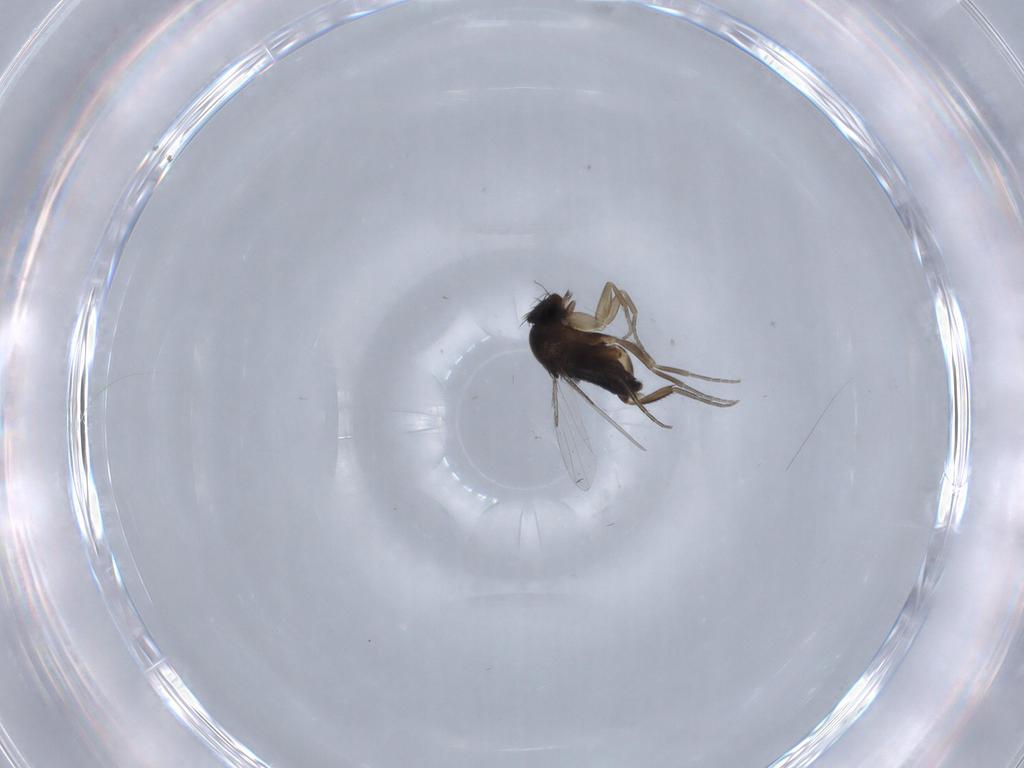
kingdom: Animalia
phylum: Arthropoda
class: Insecta
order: Diptera
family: Phoridae
